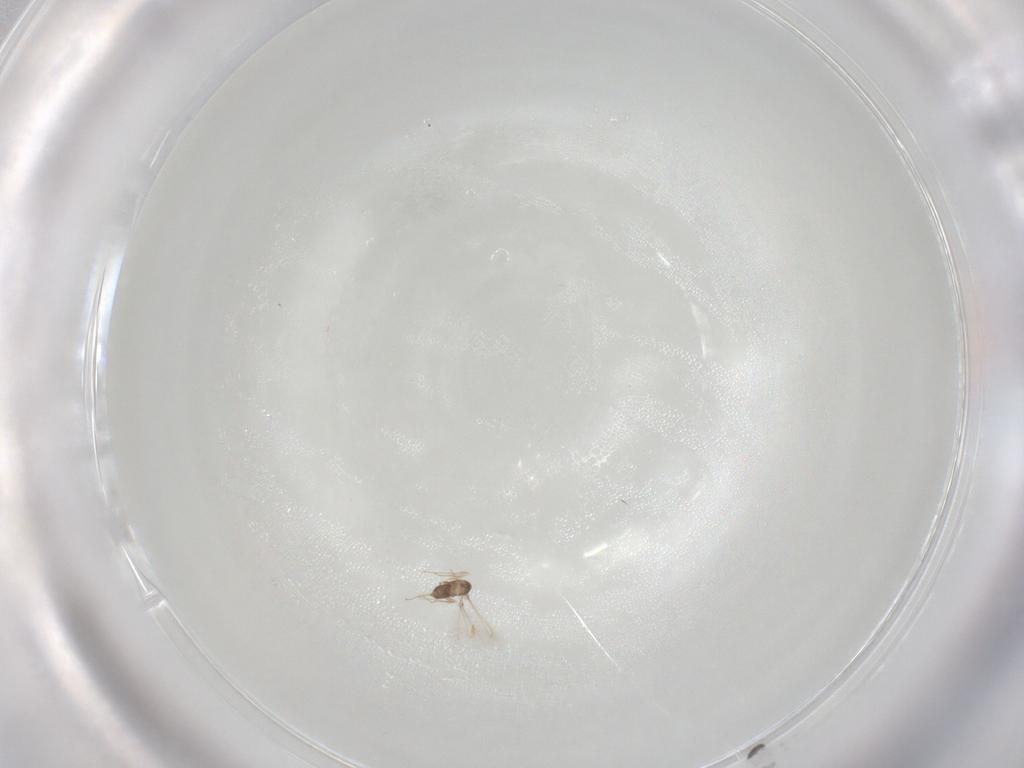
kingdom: Animalia
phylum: Arthropoda
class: Insecta
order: Hymenoptera
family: Mymaridae
